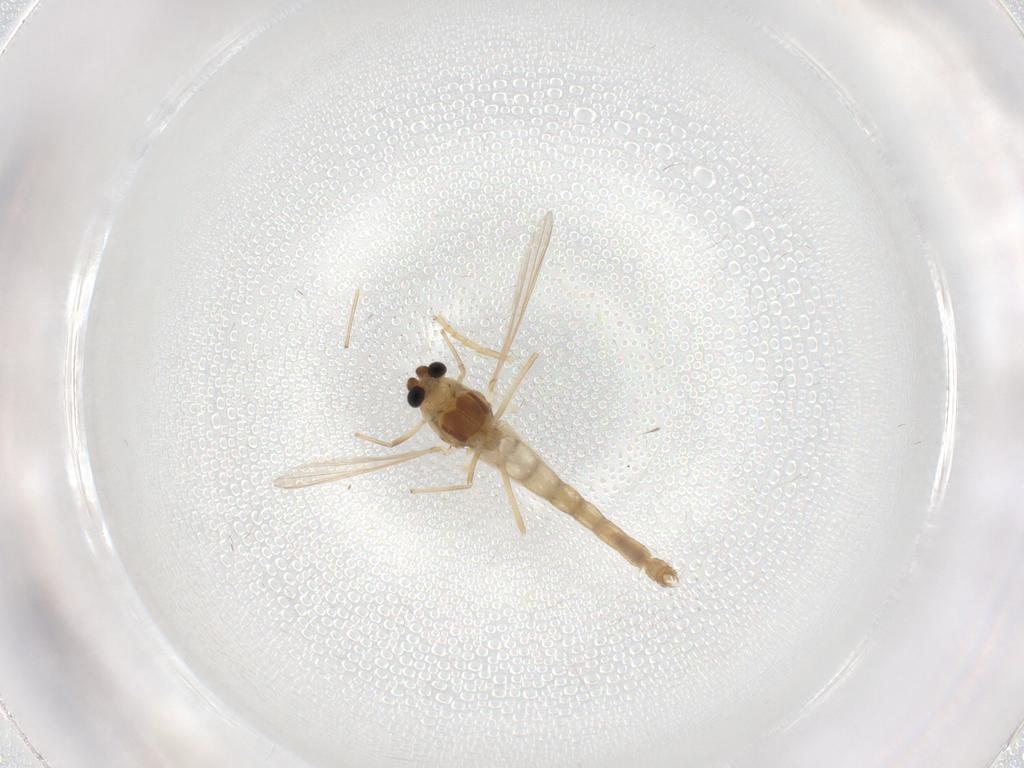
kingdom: Animalia
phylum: Arthropoda
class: Insecta
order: Diptera
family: Chironomidae
